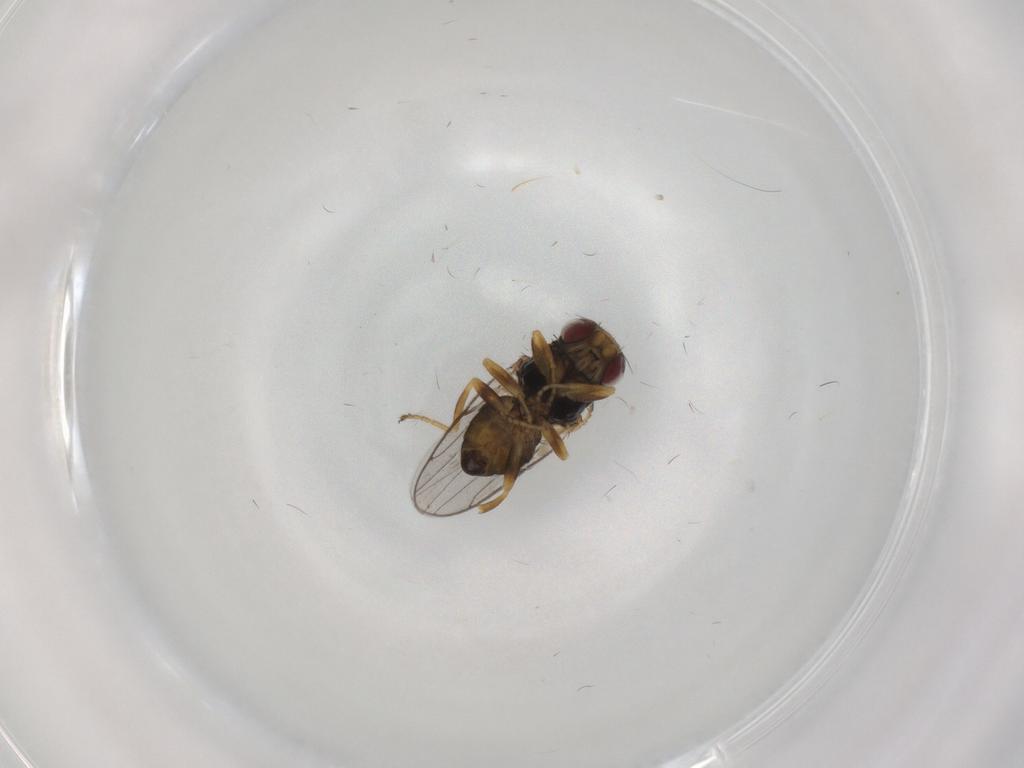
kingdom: Animalia
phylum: Arthropoda
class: Insecta
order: Diptera
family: Chloropidae
